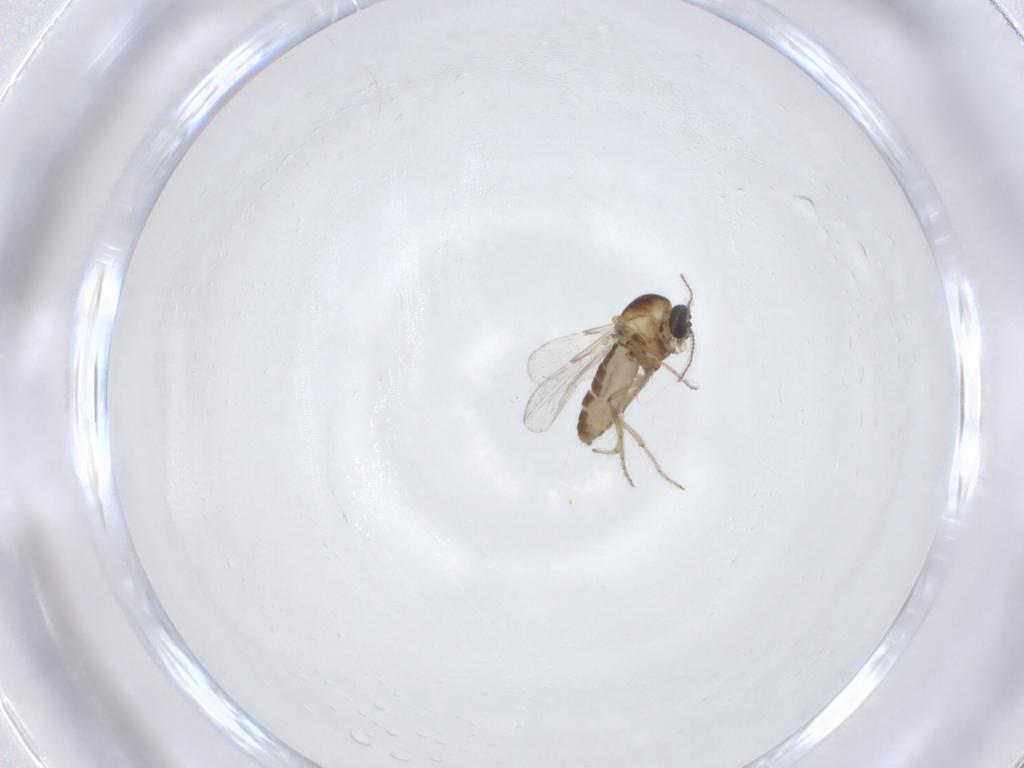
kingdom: Animalia
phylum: Arthropoda
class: Insecta
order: Diptera
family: Ceratopogonidae
